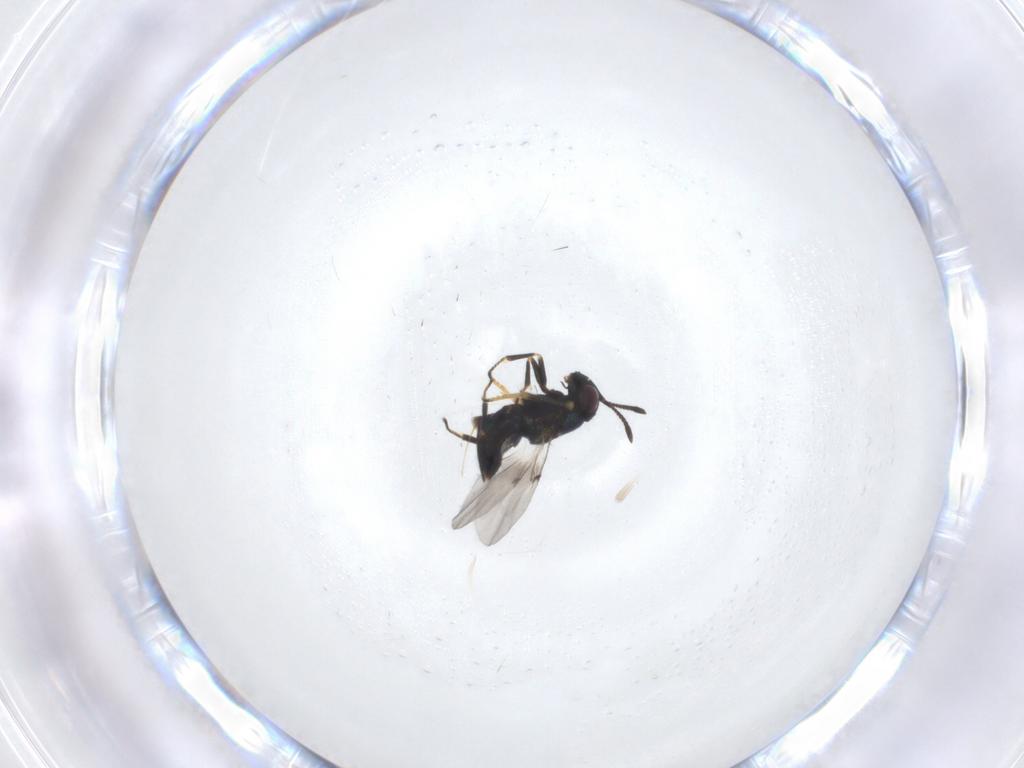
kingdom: Animalia
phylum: Arthropoda
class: Insecta
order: Hymenoptera
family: Encyrtidae
